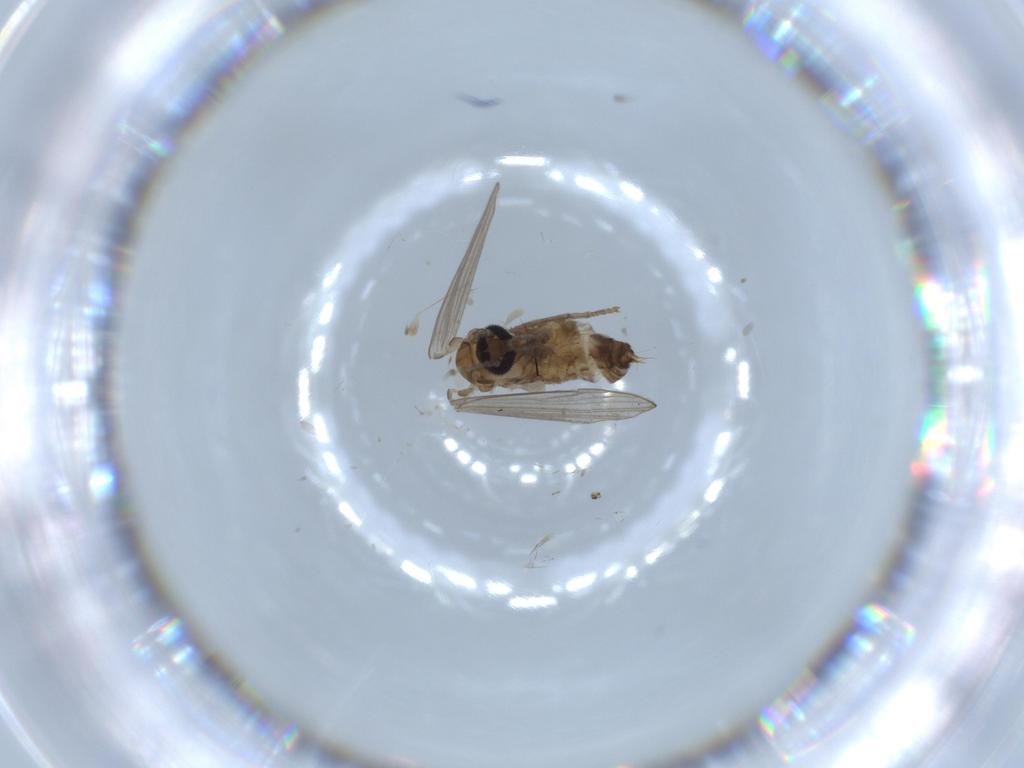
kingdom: Animalia
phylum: Arthropoda
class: Insecta
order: Diptera
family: Psychodidae
